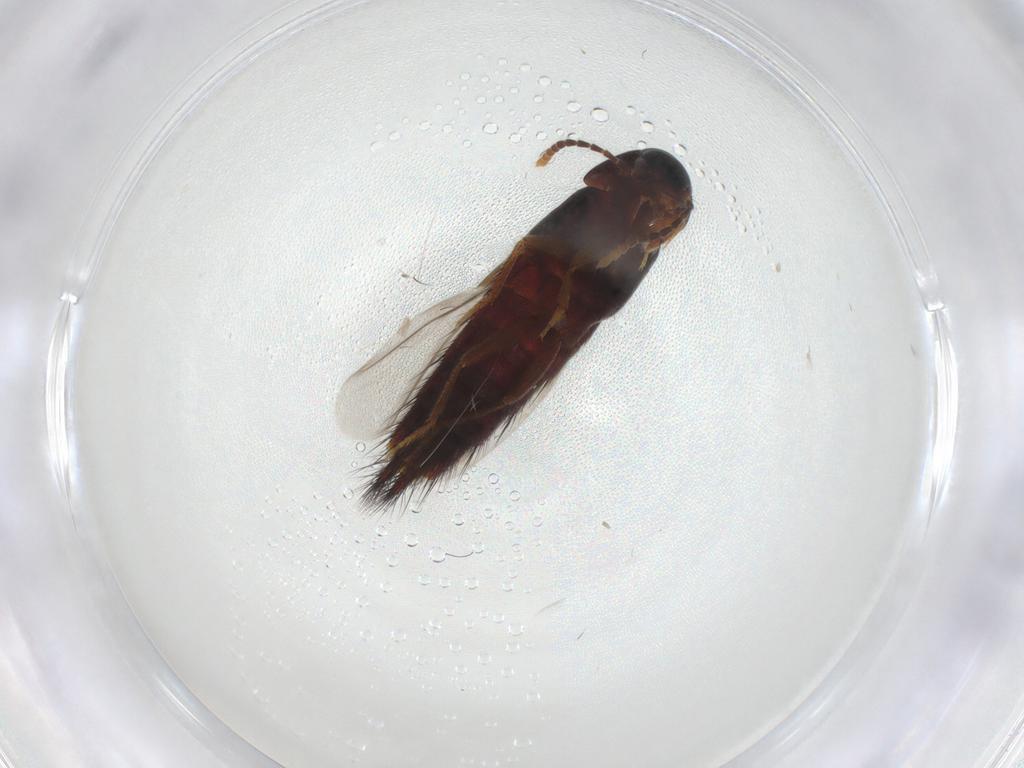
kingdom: Animalia
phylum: Arthropoda
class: Insecta
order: Coleoptera
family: Staphylinidae
